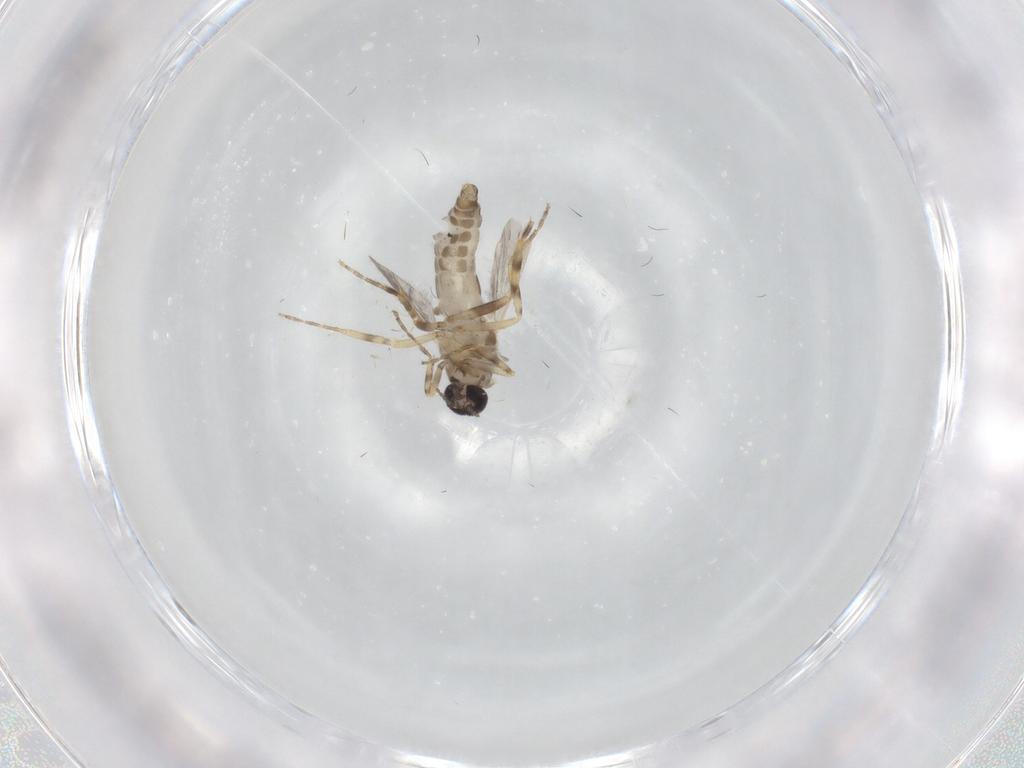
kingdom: Animalia
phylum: Arthropoda
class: Insecta
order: Diptera
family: Ceratopogonidae
